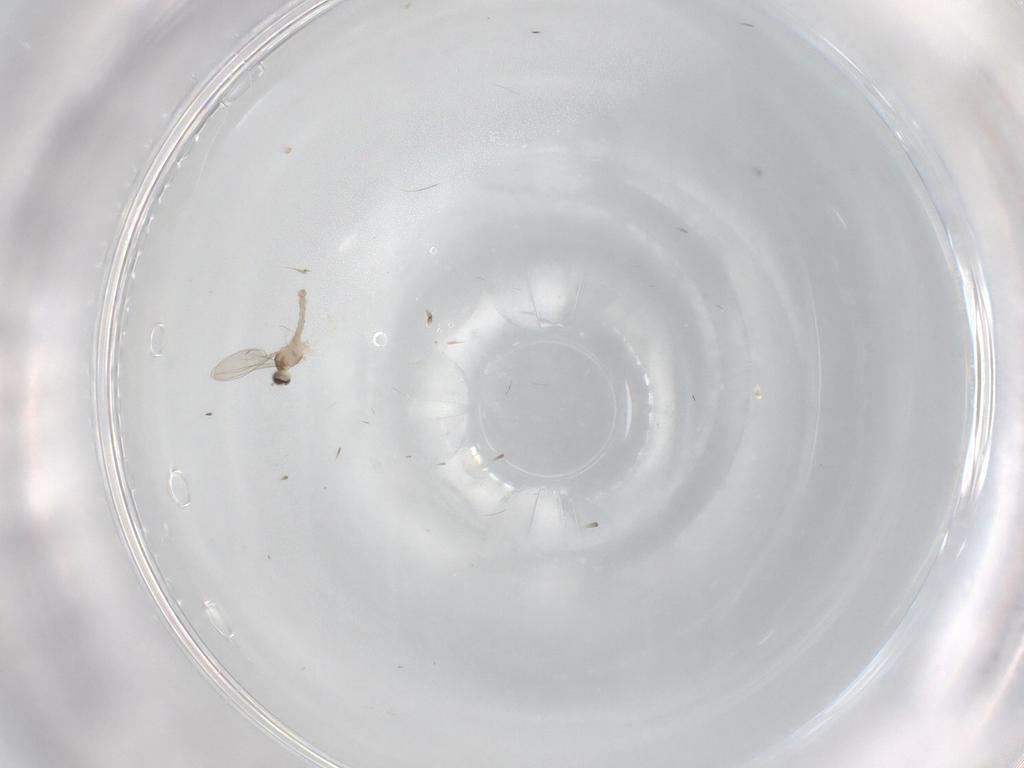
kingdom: Animalia
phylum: Arthropoda
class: Insecta
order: Diptera
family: Cecidomyiidae
